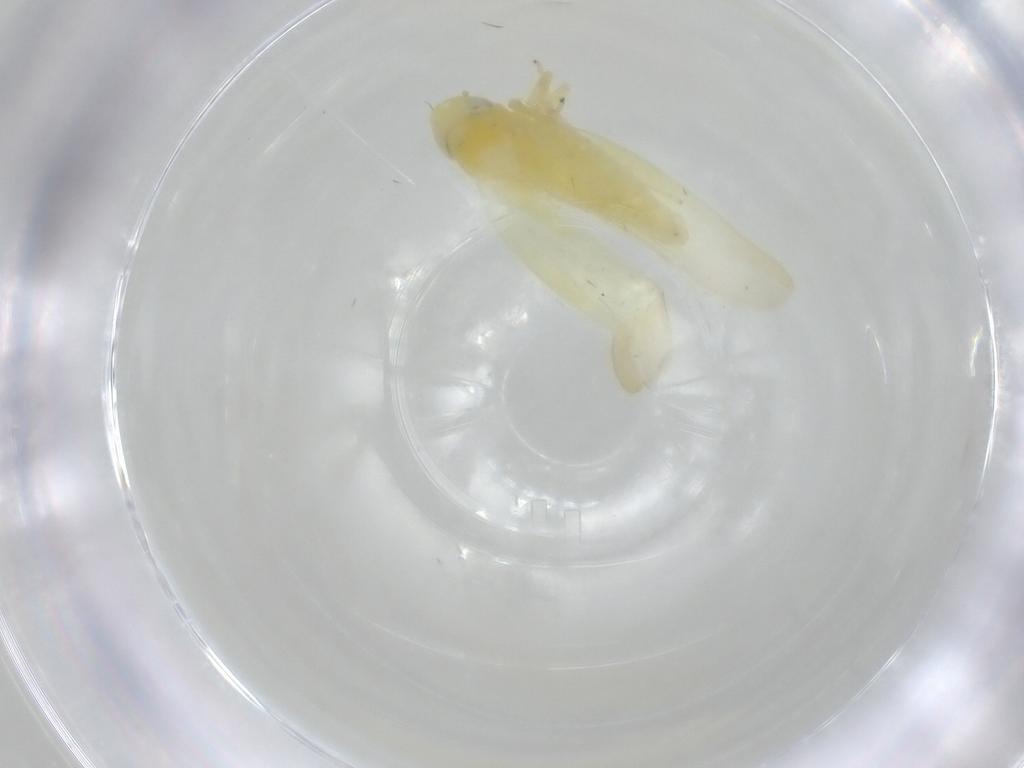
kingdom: Animalia
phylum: Arthropoda
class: Insecta
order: Hemiptera
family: Cicadellidae
